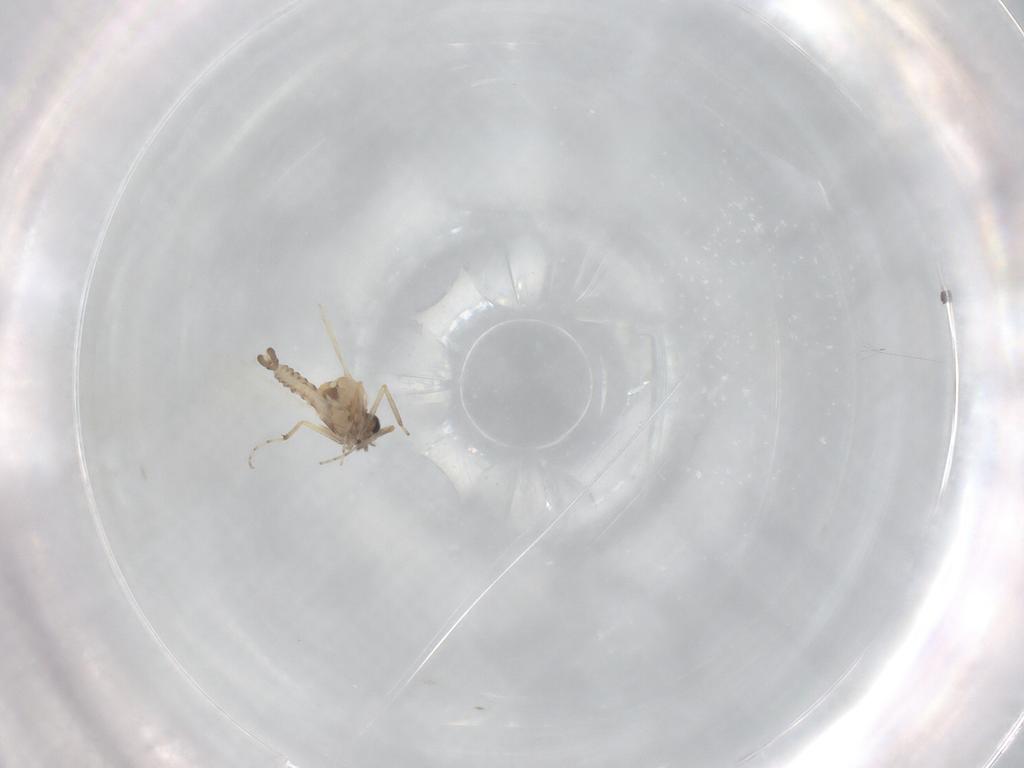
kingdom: Animalia
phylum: Arthropoda
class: Insecta
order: Diptera
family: Ceratopogonidae
